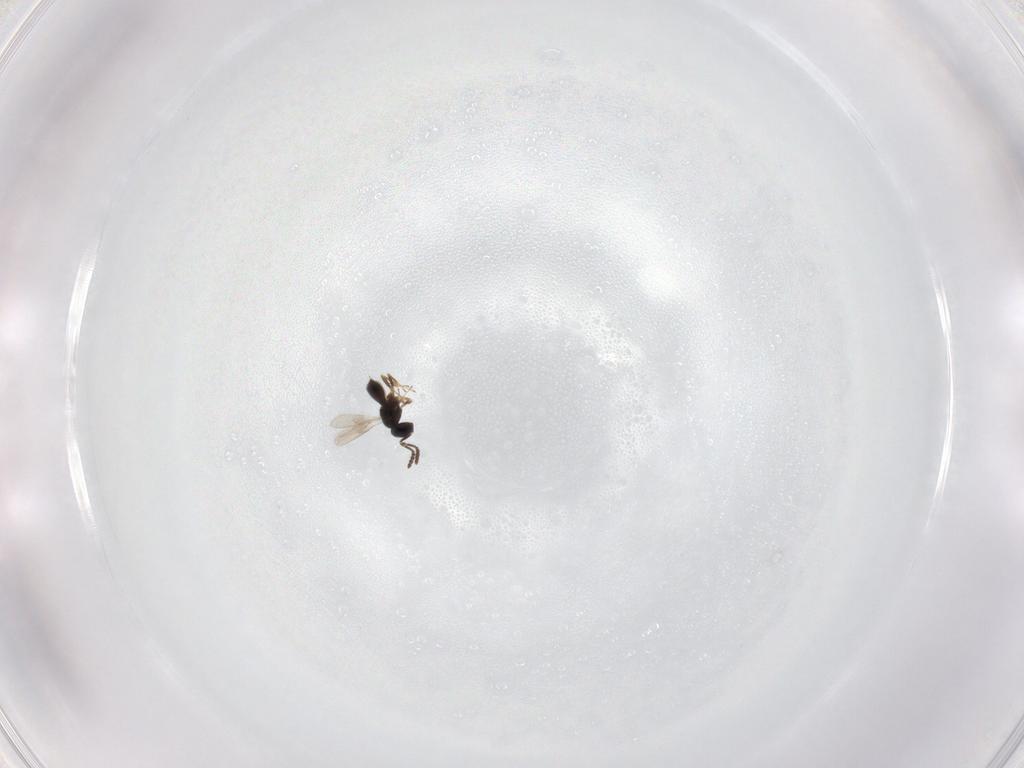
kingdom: Animalia
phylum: Arthropoda
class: Insecta
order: Hymenoptera
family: Scelionidae
